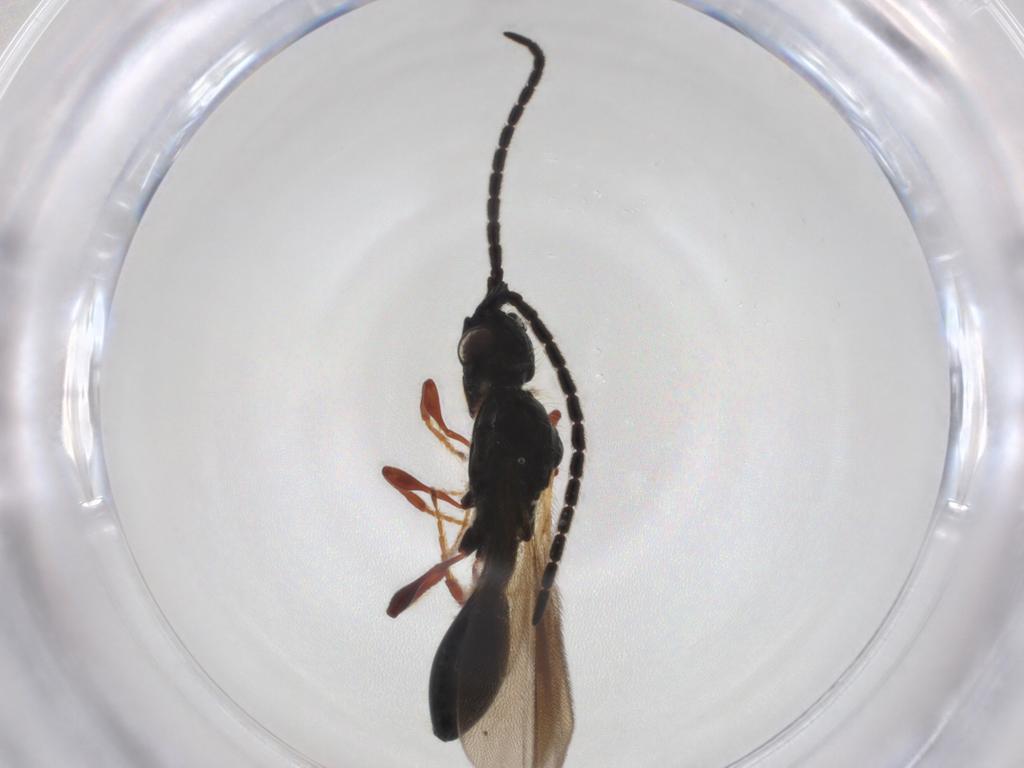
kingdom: Animalia
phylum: Arthropoda
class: Insecta
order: Hymenoptera
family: Diapriidae
